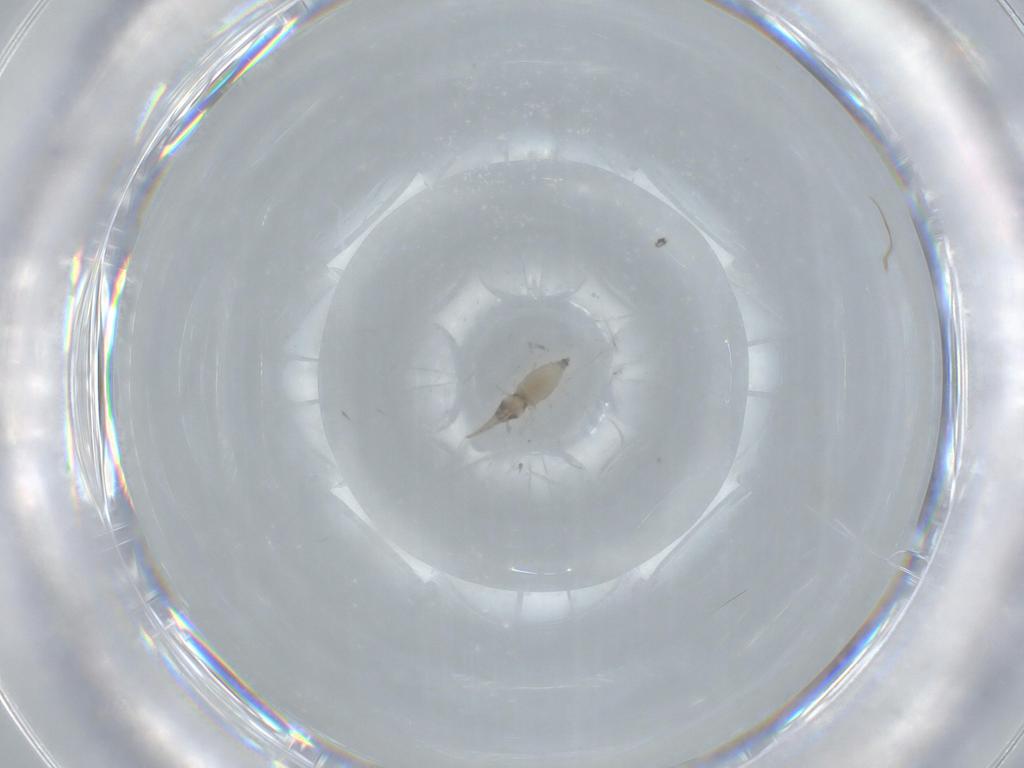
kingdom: Animalia
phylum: Arthropoda
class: Insecta
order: Diptera
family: Cecidomyiidae
